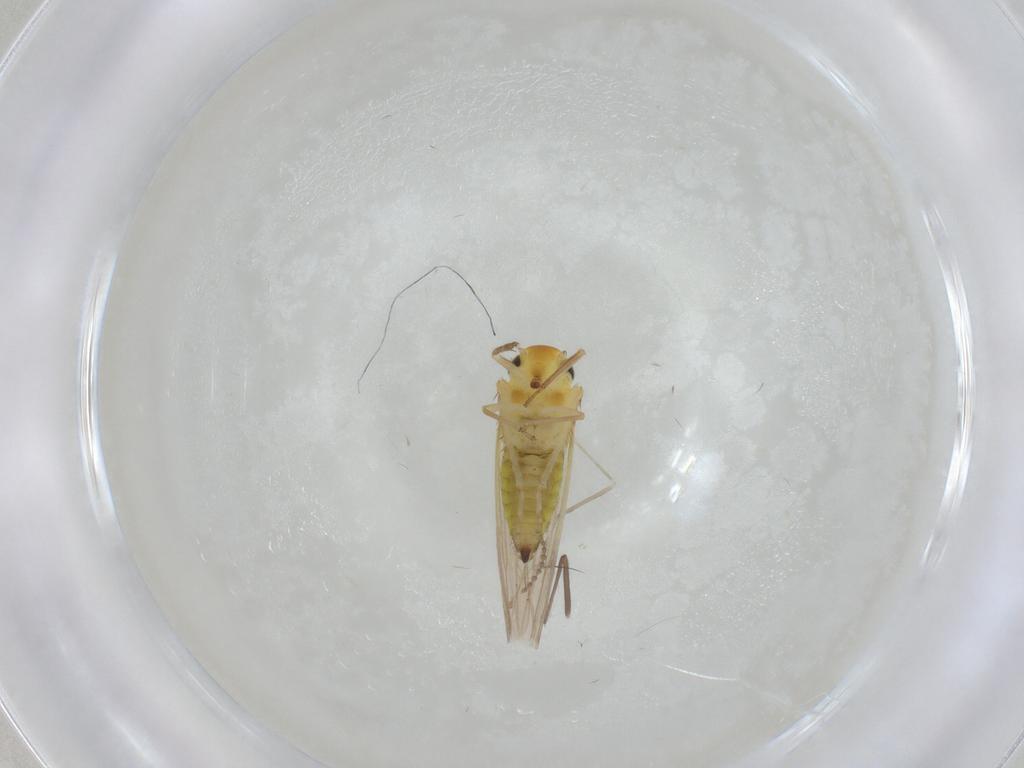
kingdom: Animalia
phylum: Arthropoda
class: Insecta
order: Hemiptera
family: Cicadellidae
